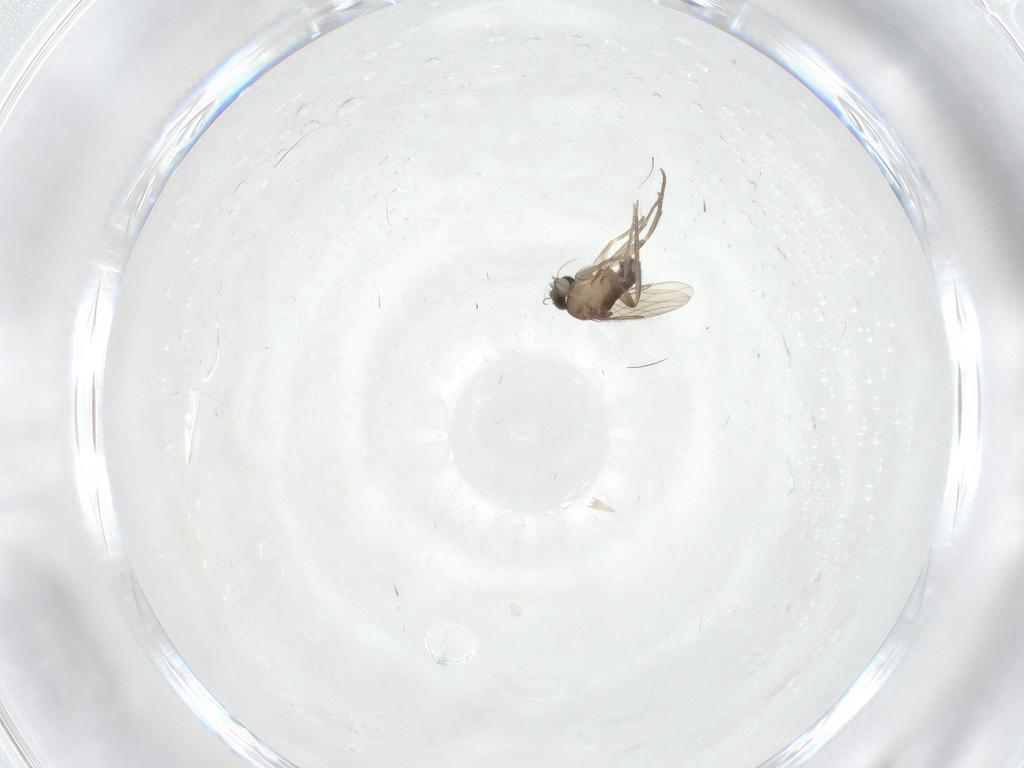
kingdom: Animalia
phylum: Arthropoda
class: Insecta
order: Diptera
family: Phoridae
